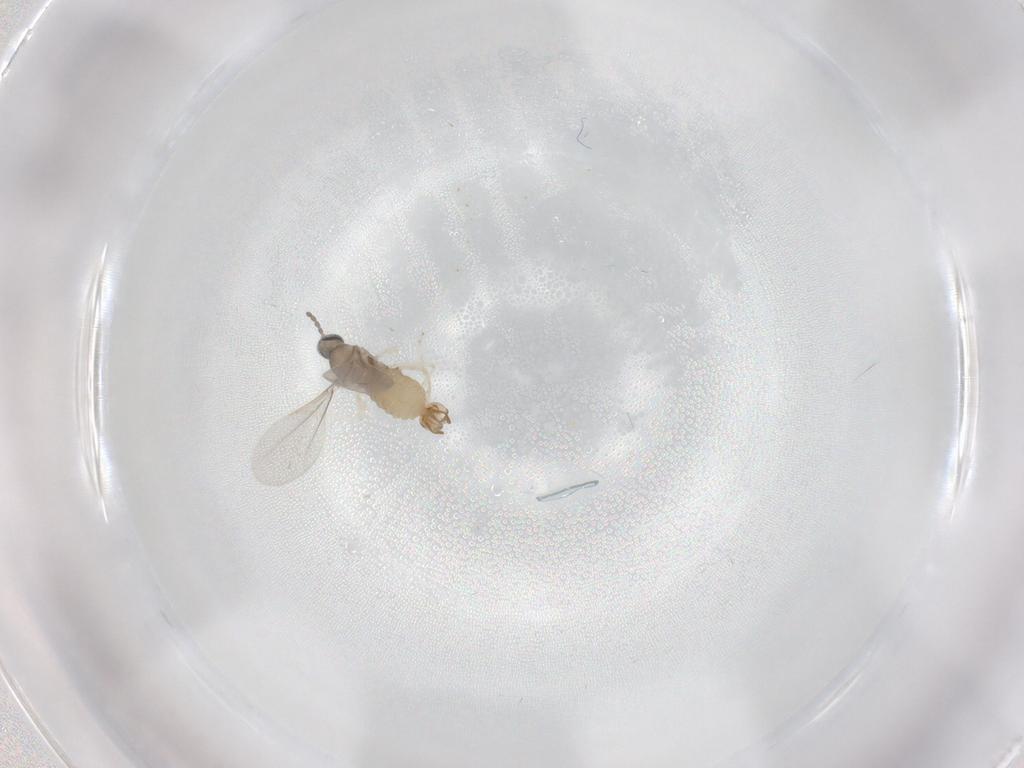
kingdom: Animalia
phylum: Arthropoda
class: Insecta
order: Diptera
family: Cecidomyiidae
